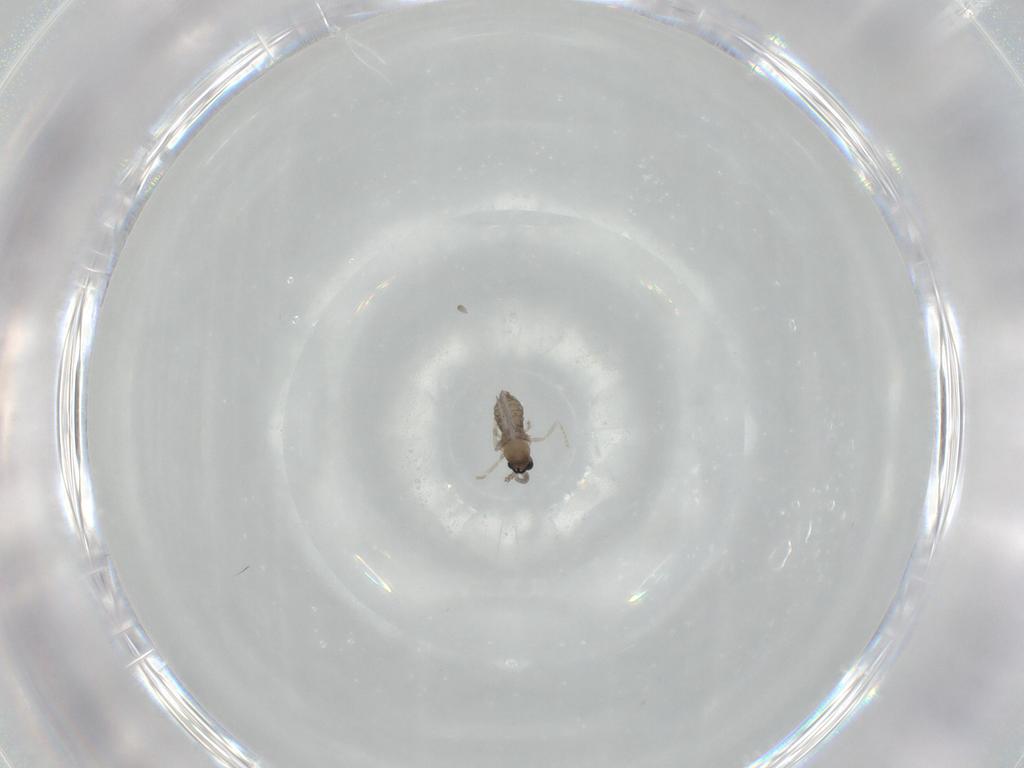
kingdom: Animalia
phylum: Arthropoda
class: Insecta
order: Diptera
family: Cecidomyiidae
